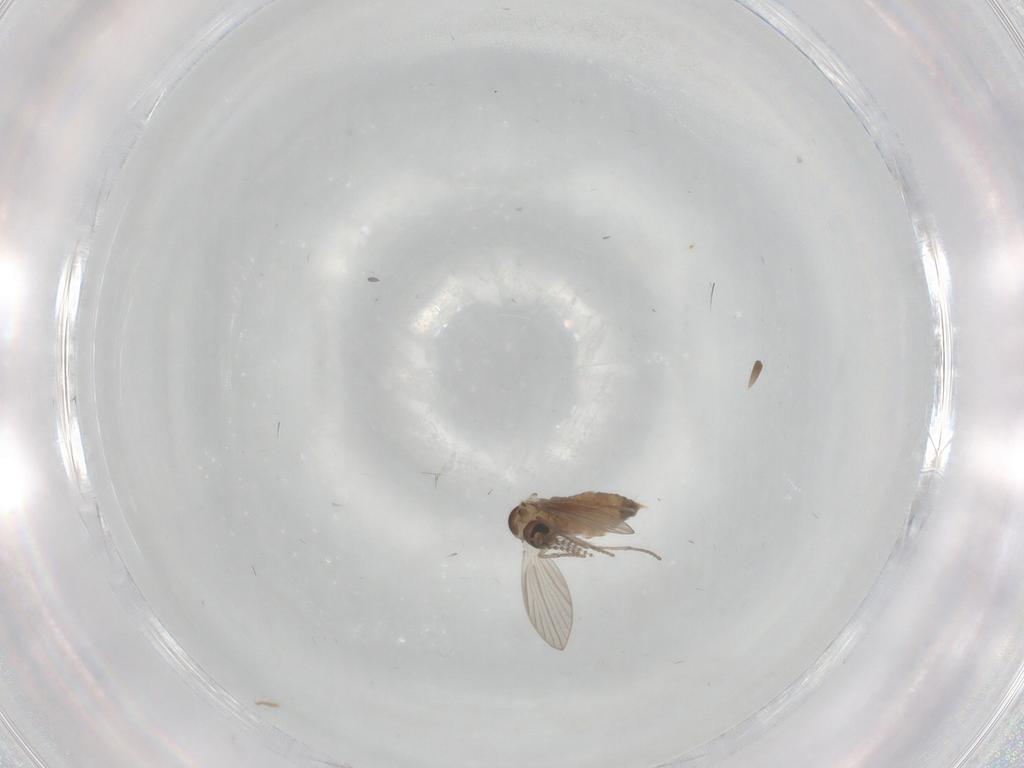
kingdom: Animalia
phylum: Arthropoda
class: Insecta
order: Diptera
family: Psychodidae
